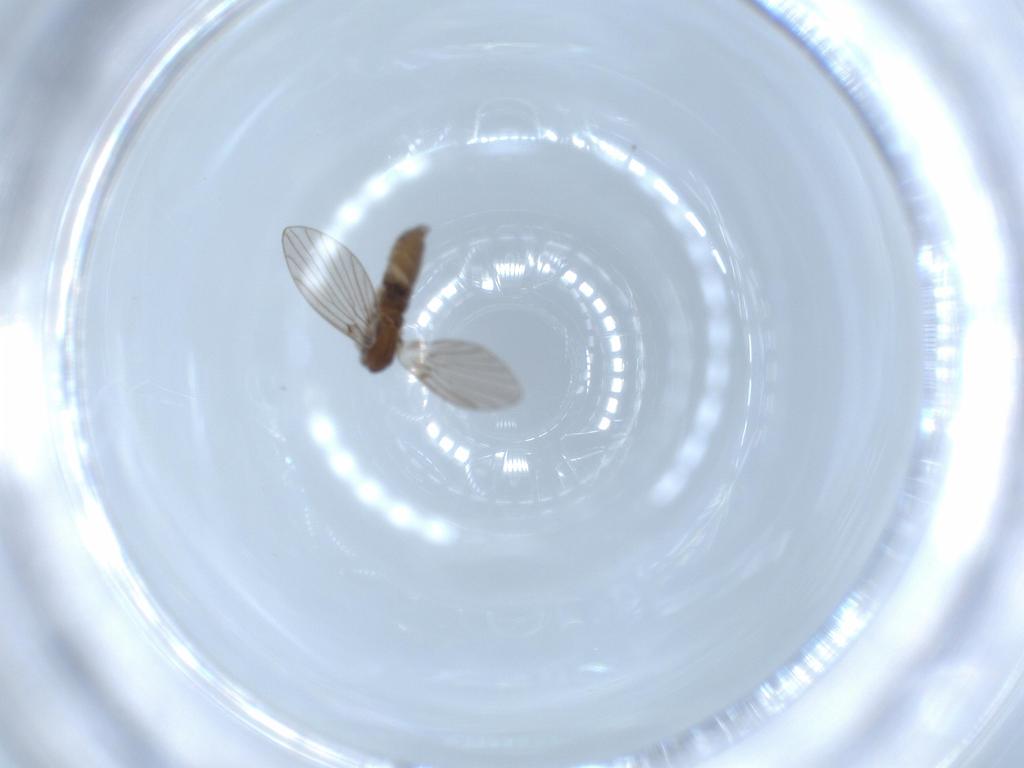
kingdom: Animalia
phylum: Arthropoda
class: Insecta
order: Diptera
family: Psychodidae
